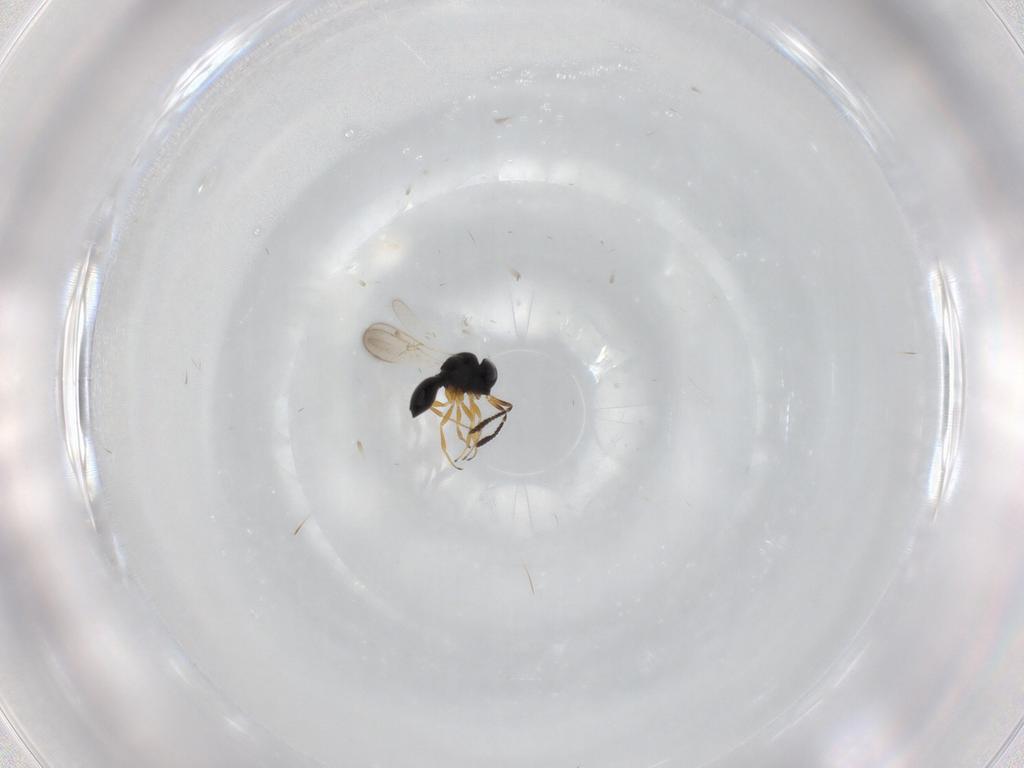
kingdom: Animalia
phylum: Arthropoda
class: Insecta
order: Hymenoptera
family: Scelionidae
